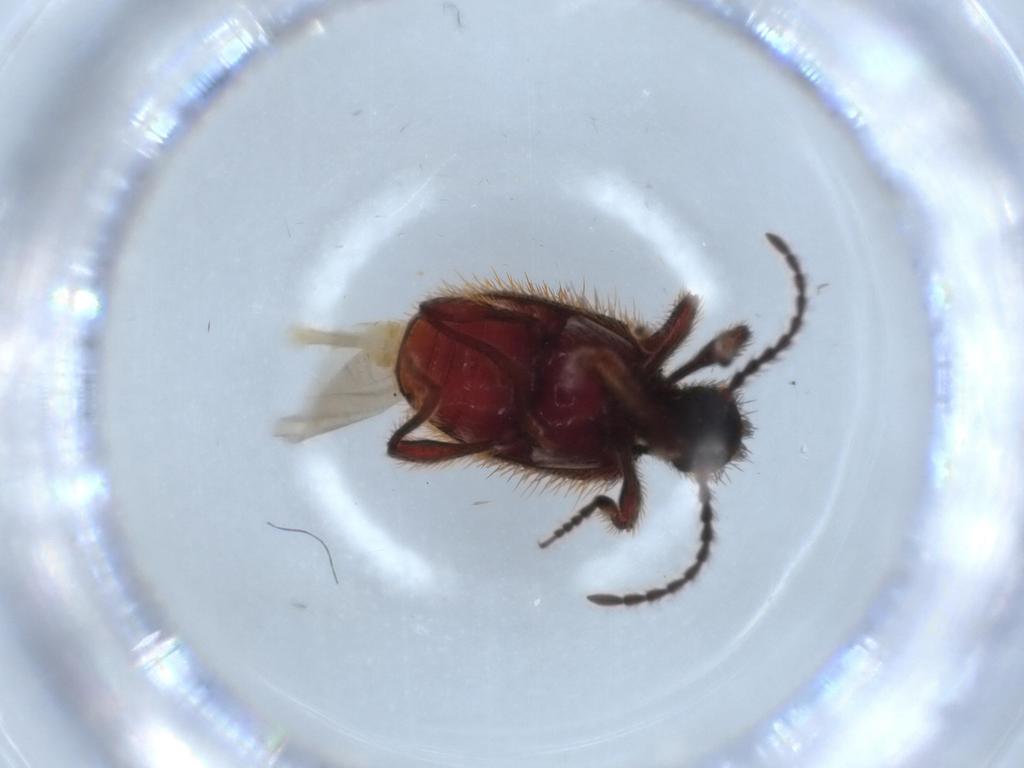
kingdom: Animalia
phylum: Arthropoda
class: Insecta
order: Coleoptera
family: Ptinidae
